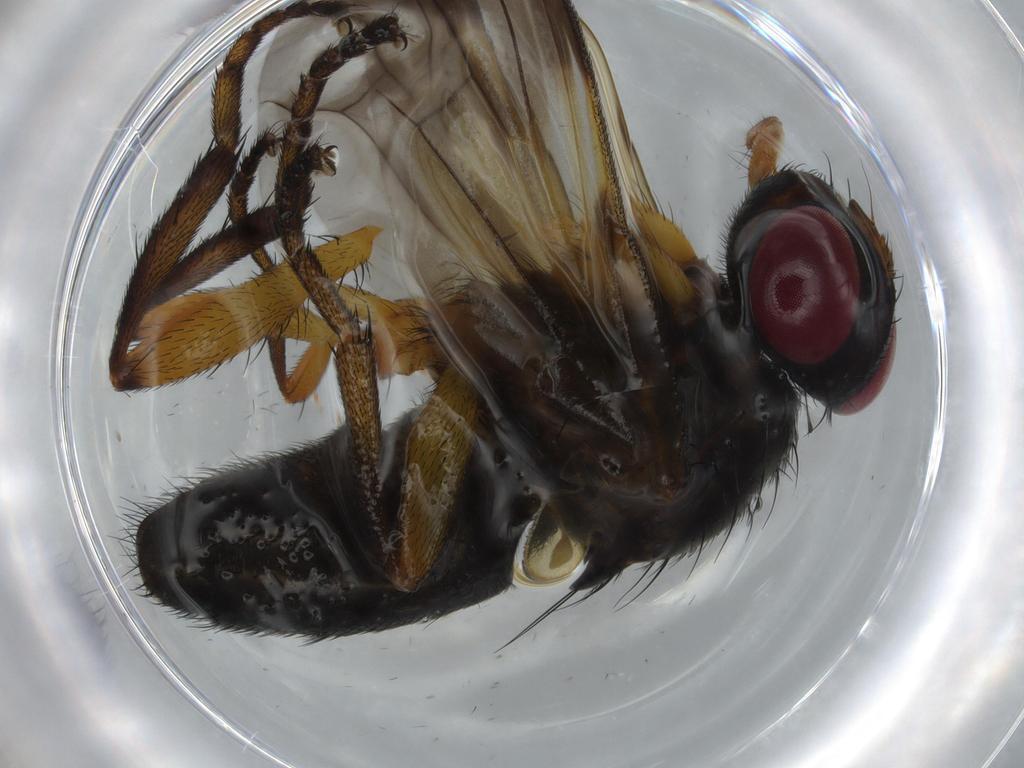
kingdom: Animalia
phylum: Arthropoda
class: Insecta
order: Diptera
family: Calliphoridae
